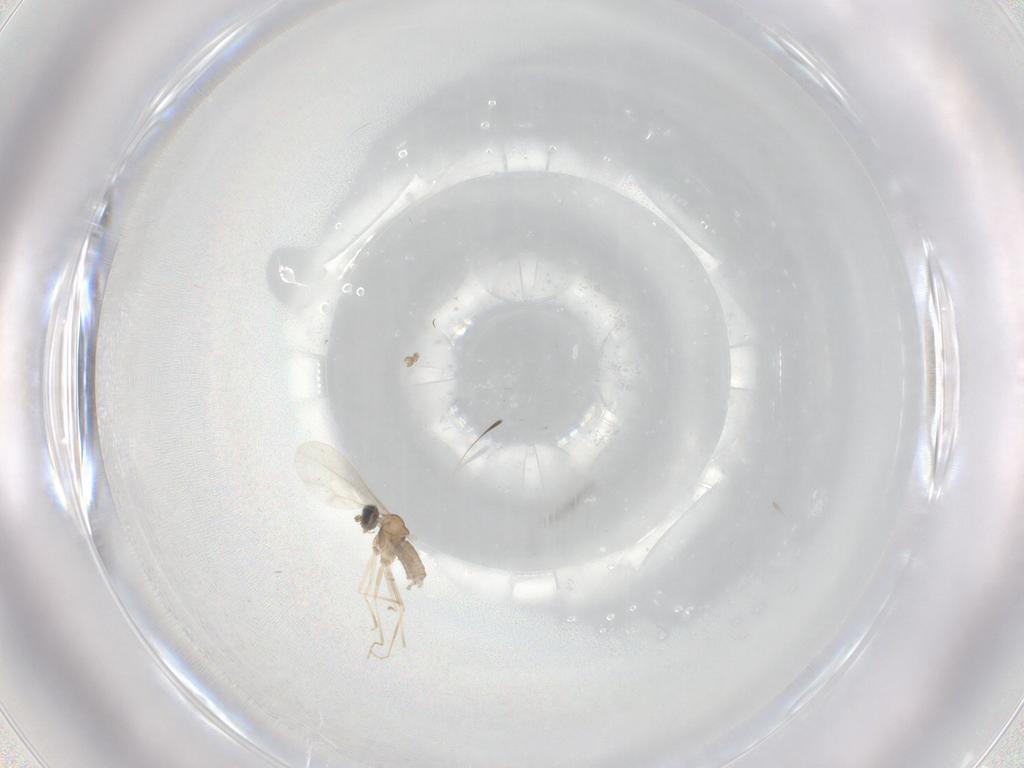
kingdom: Animalia
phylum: Arthropoda
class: Insecta
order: Diptera
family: Cecidomyiidae
